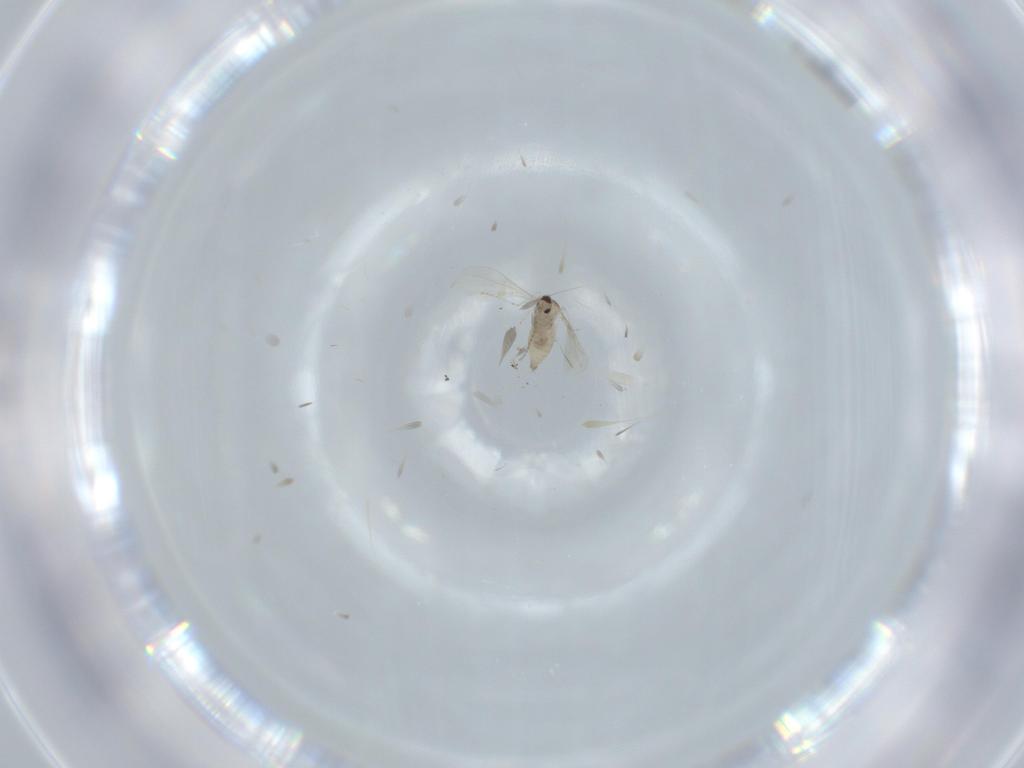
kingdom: Animalia
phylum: Arthropoda
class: Insecta
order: Diptera
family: Cecidomyiidae
